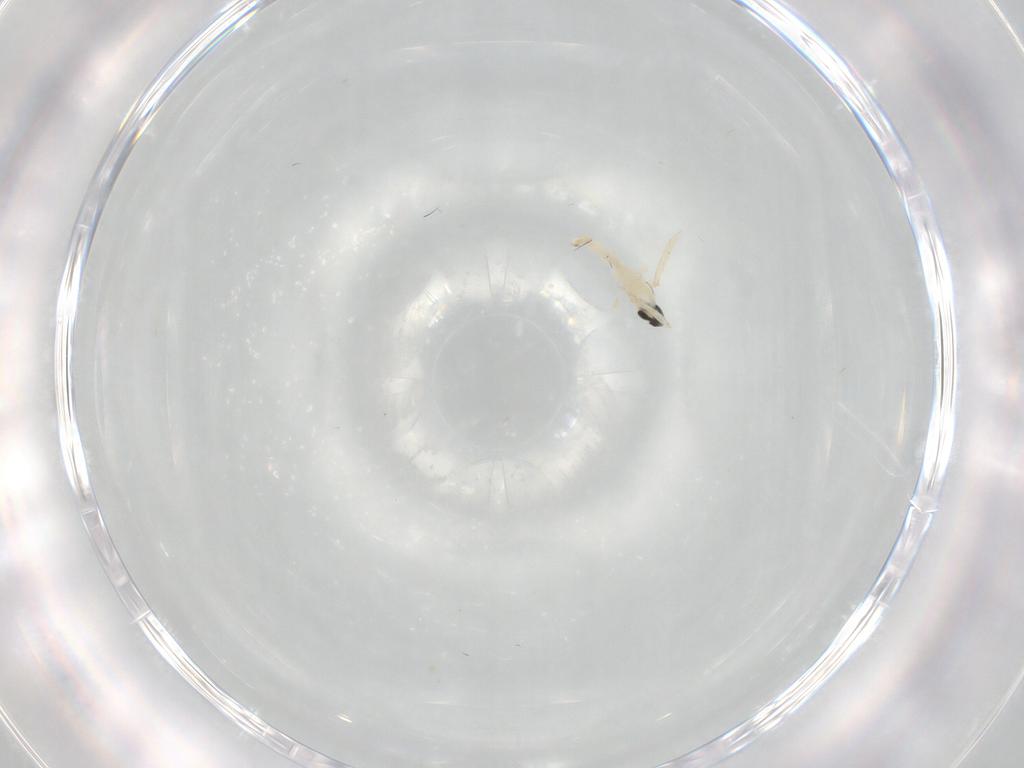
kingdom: Animalia
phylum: Arthropoda
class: Insecta
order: Diptera
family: Cecidomyiidae
